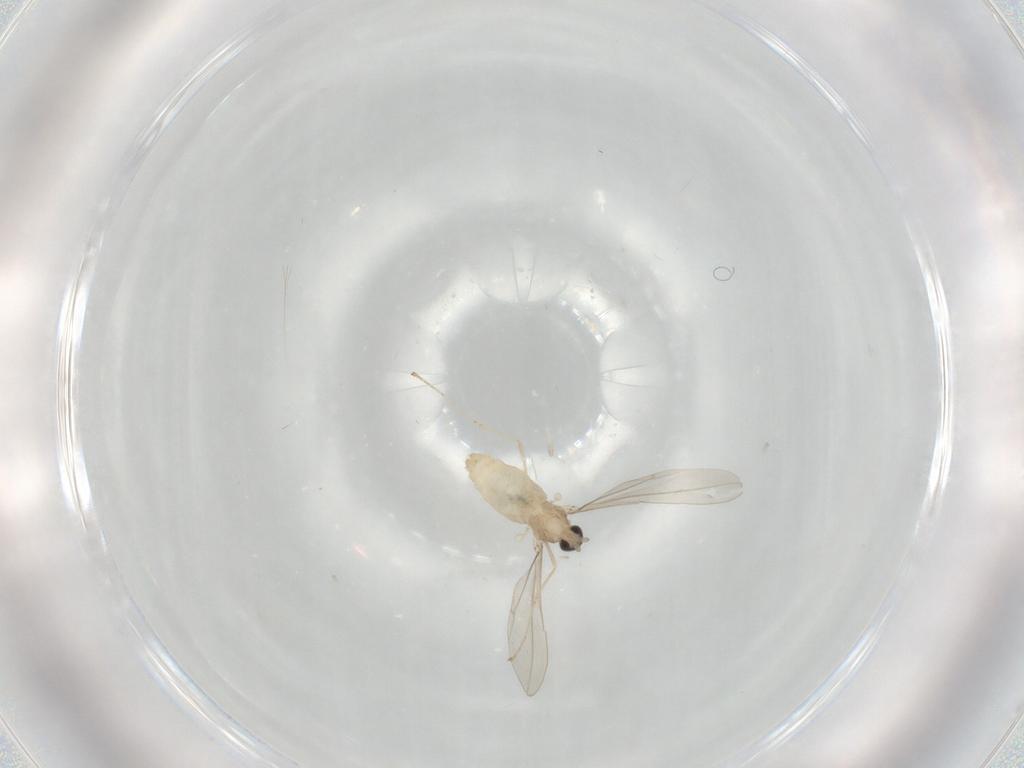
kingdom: Animalia
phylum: Arthropoda
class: Insecta
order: Diptera
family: Cecidomyiidae
